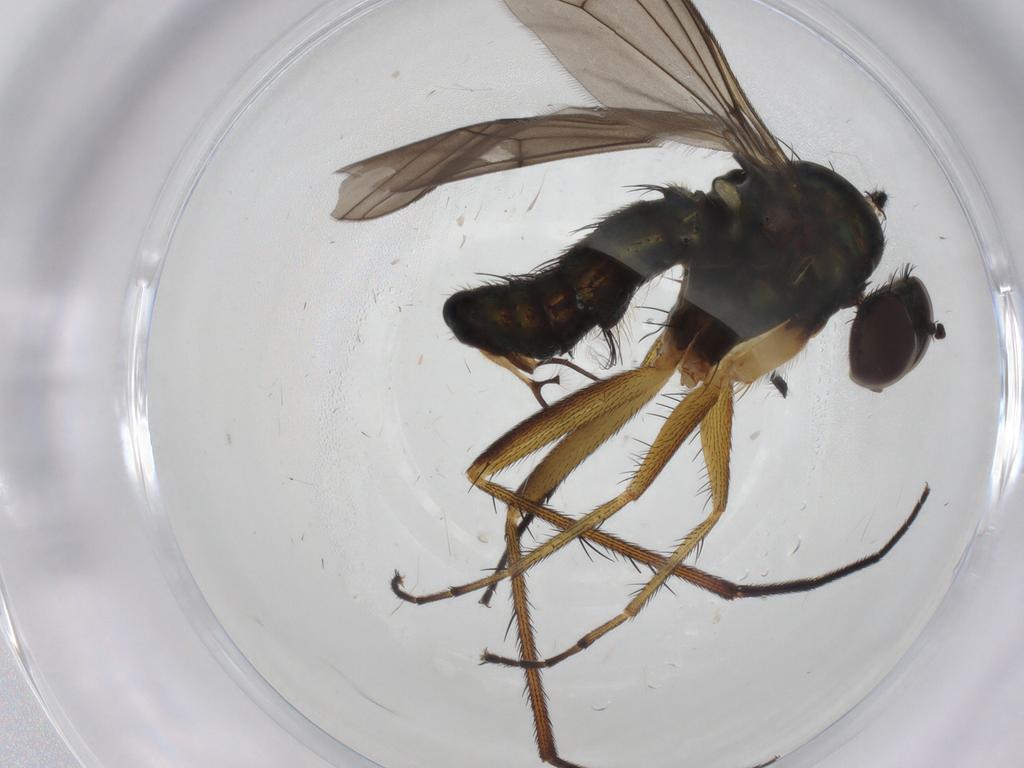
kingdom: Animalia
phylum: Arthropoda
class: Insecta
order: Diptera
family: Dolichopodidae
